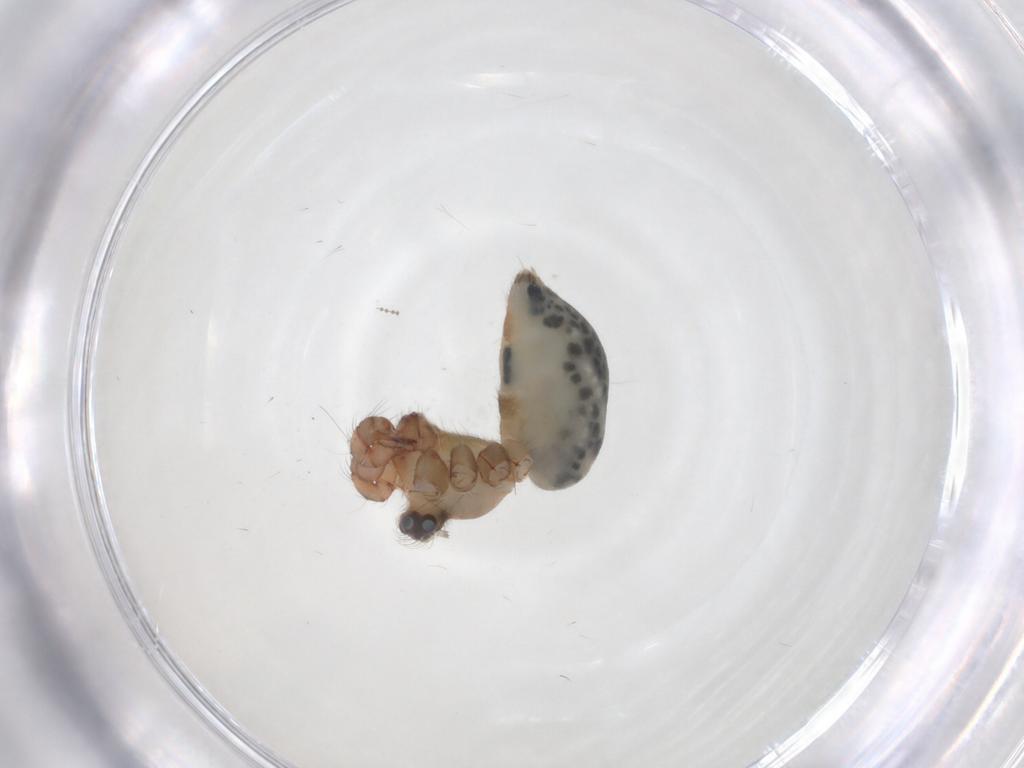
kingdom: Animalia
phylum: Arthropoda
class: Arachnida
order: Araneae
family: Pholcidae
